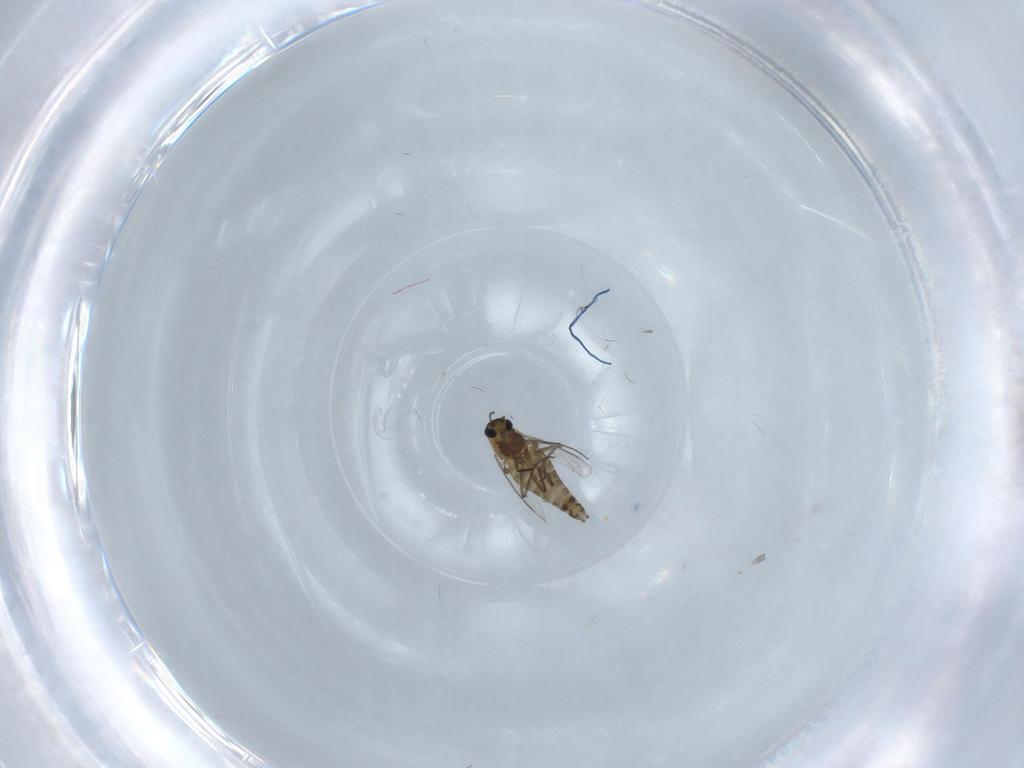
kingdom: Animalia
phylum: Arthropoda
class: Insecta
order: Diptera
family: Chironomidae
